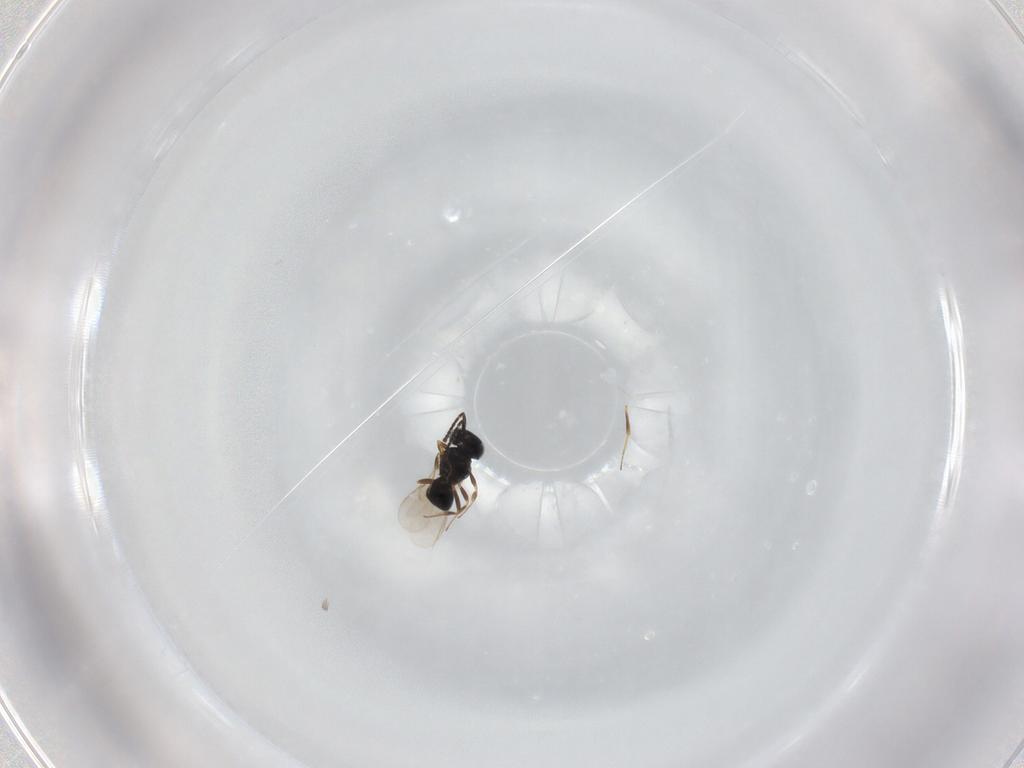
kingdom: Animalia
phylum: Arthropoda
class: Insecta
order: Hymenoptera
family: Scelionidae
